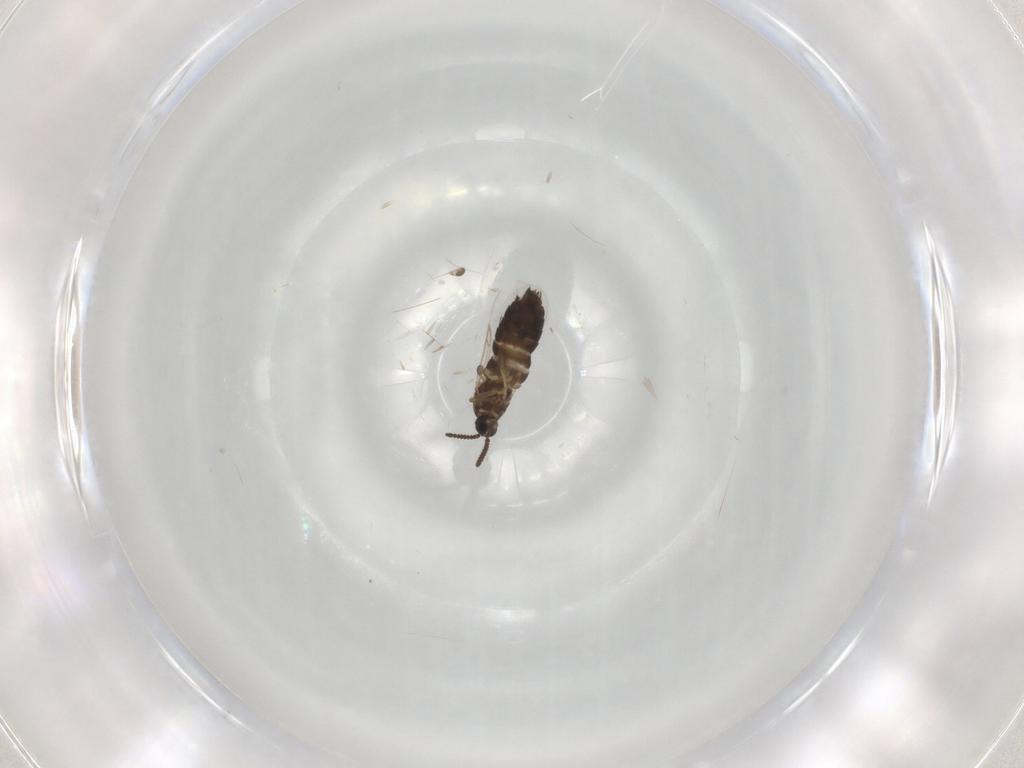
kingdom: Animalia
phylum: Arthropoda
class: Insecta
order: Diptera
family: Scatopsidae
